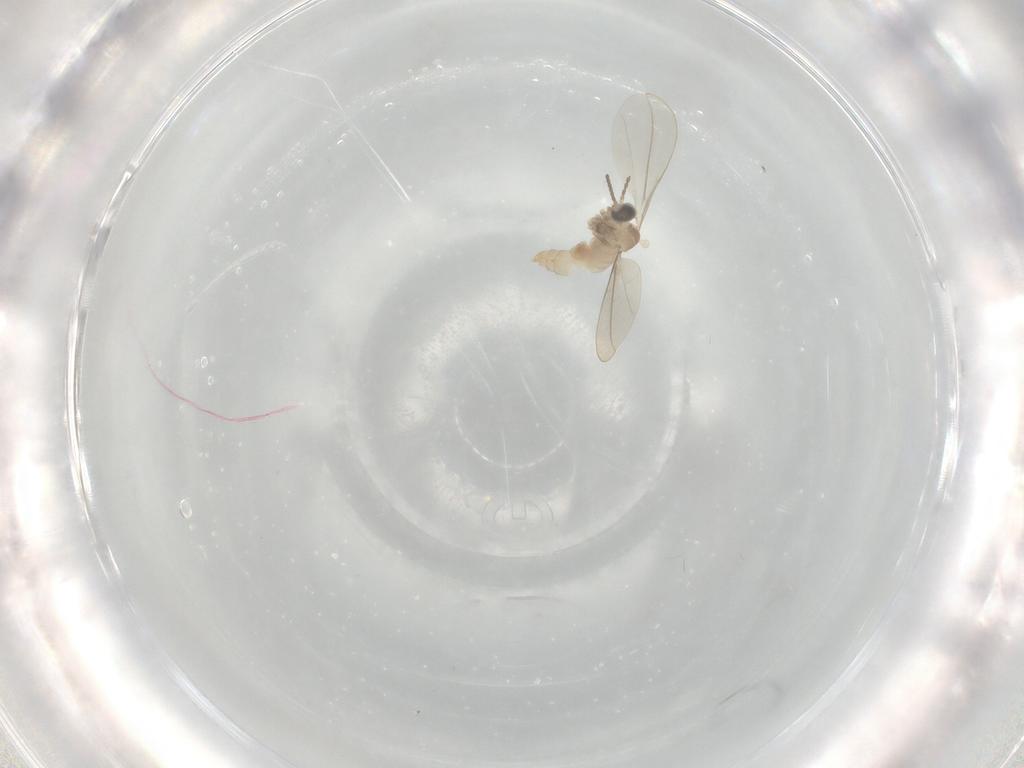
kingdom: Animalia
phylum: Arthropoda
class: Insecta
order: Diptera
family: Cecidomyiidae
